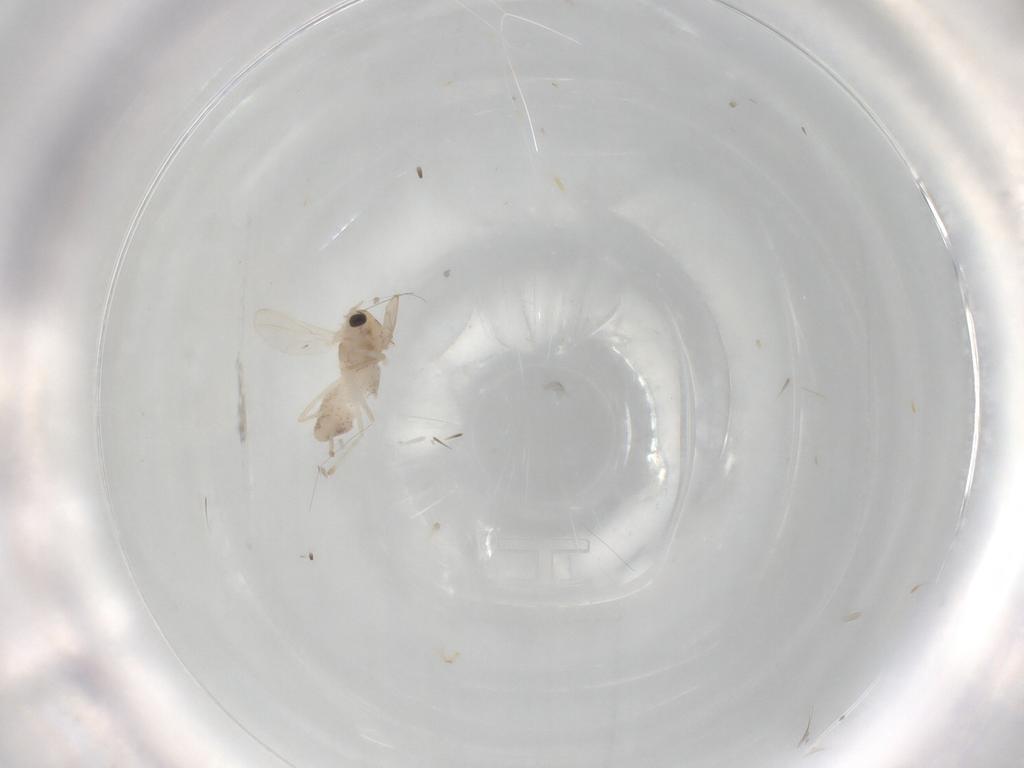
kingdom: Animalia
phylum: Arthropoda
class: Insecta
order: Diptera
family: Chironomidae
